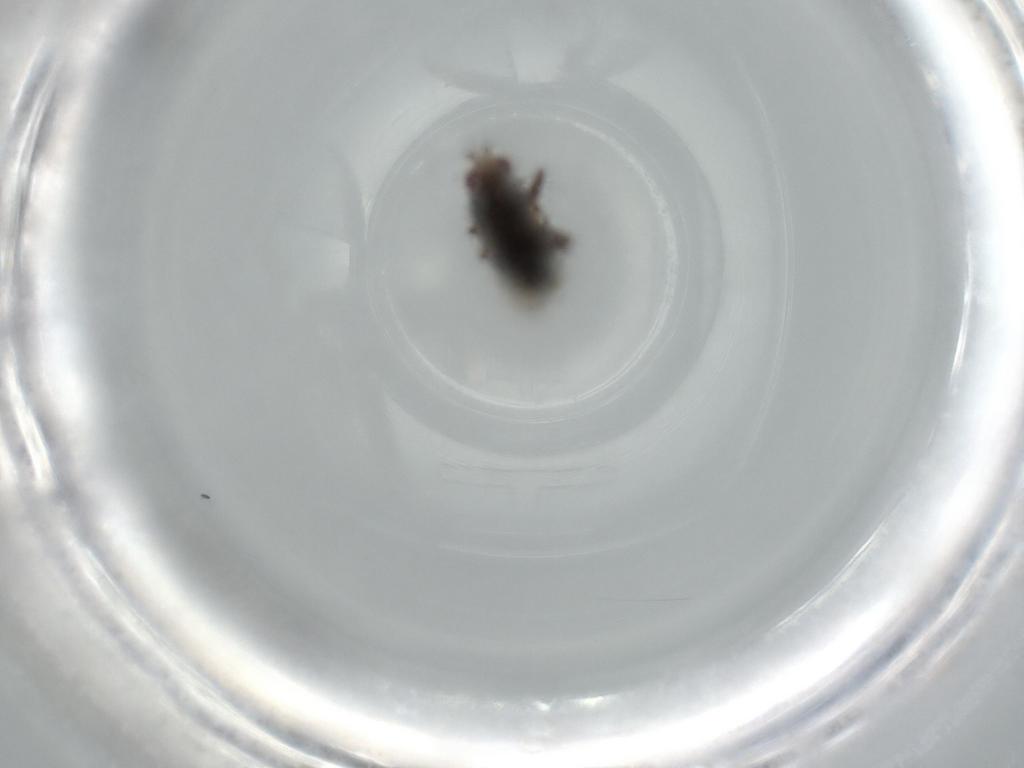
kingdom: Animalia
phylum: Arthropoda
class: Insecta
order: Diptera
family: Sphaeroceridae
